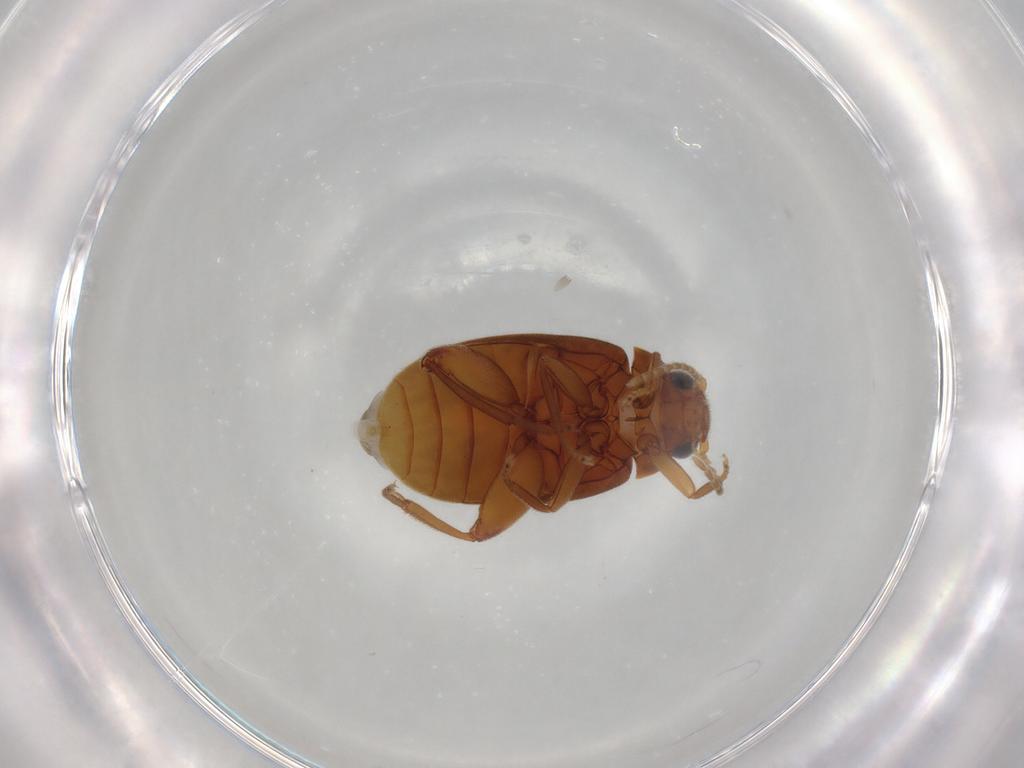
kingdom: Animalia
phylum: Arthropoda
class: Insecta
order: Coleoptera
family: Scirtidae
